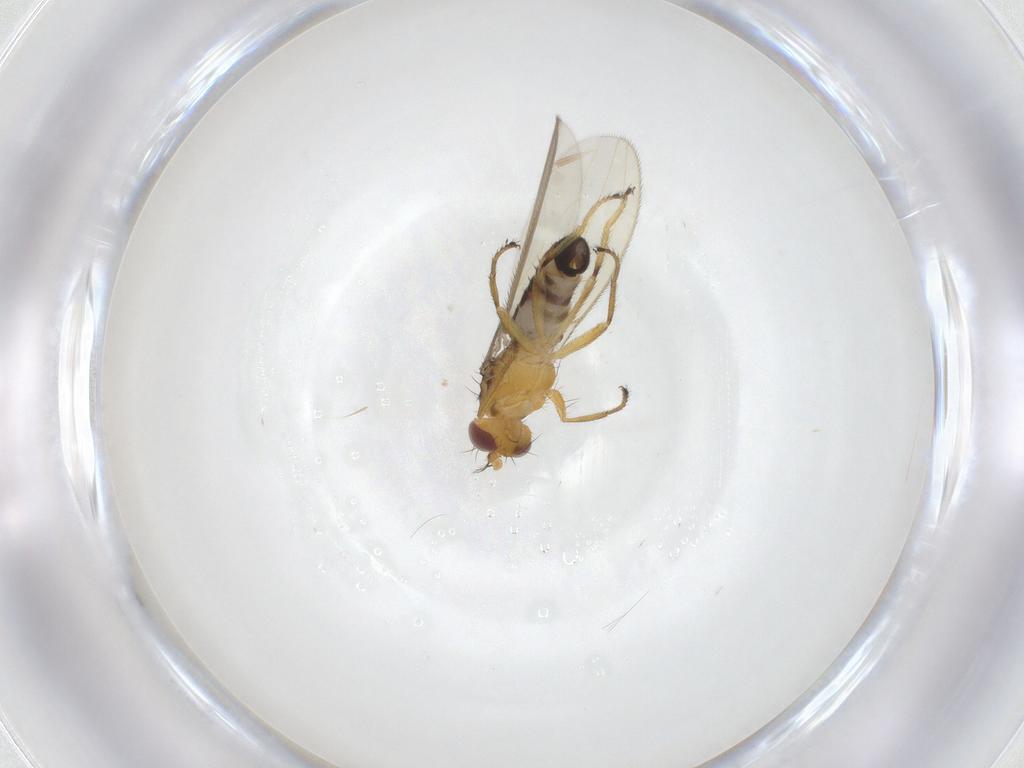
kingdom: Animalia
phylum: Arthropoda
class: Insecta
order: Diptera
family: Periscelididae
